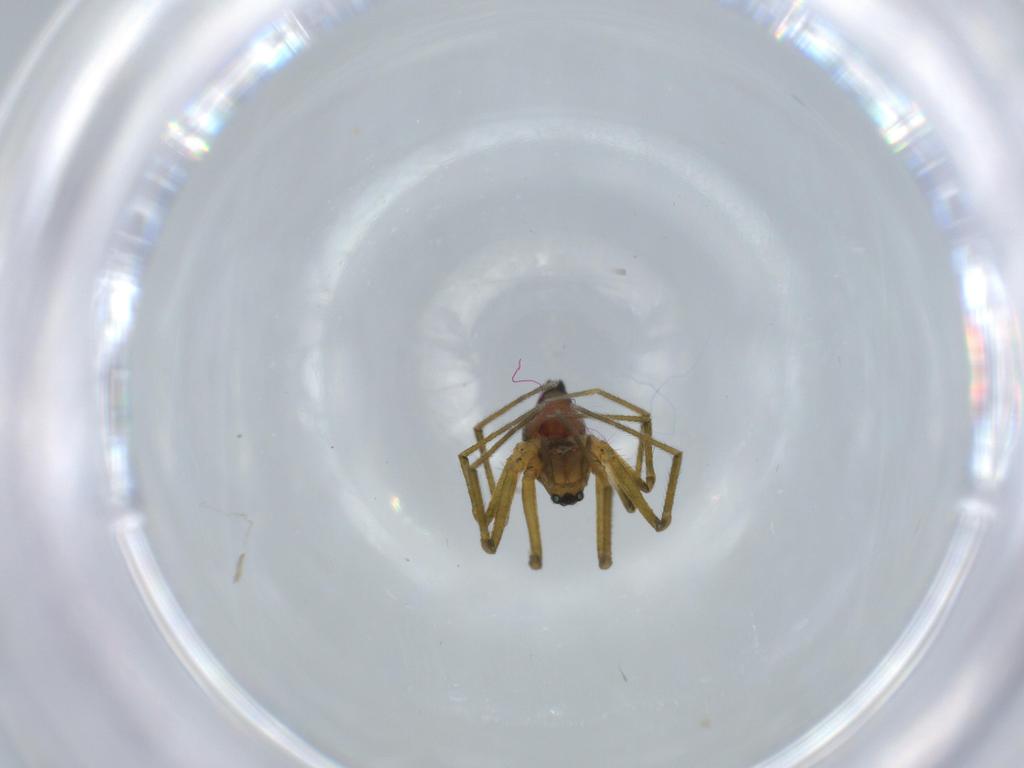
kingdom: Animalia
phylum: Arthropoda
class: Arachnida
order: Araneae
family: Linyphiidae
